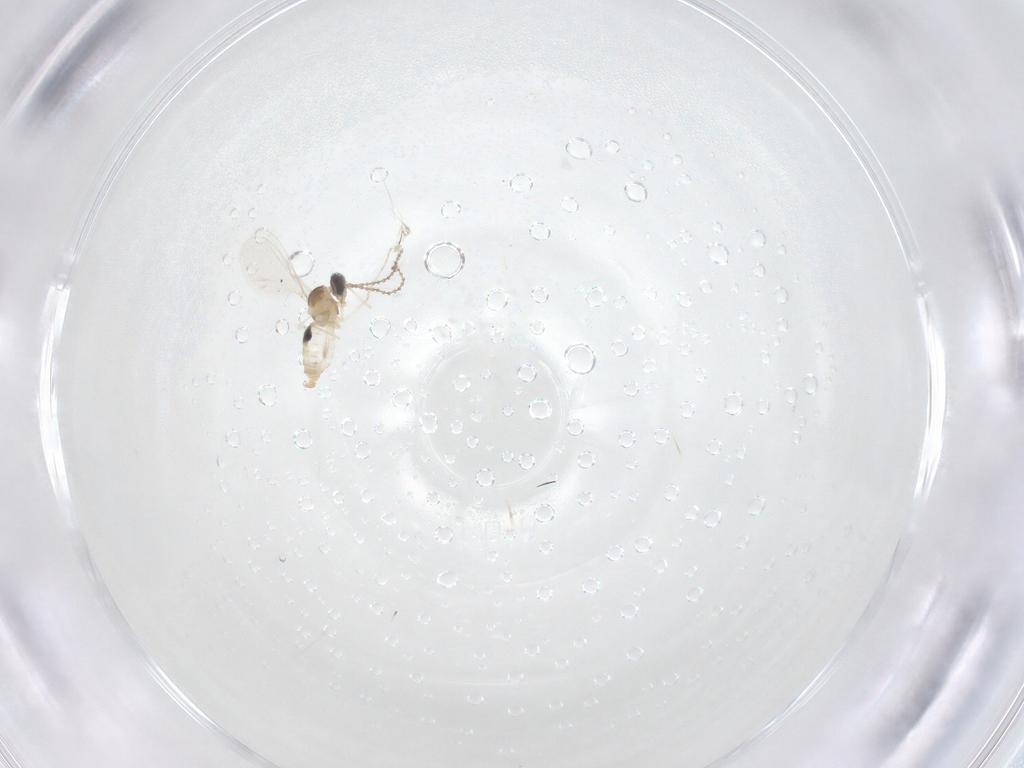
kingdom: Animalia
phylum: Arthropoda
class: Insecta
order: Diptera
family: Cecidomyiidae
